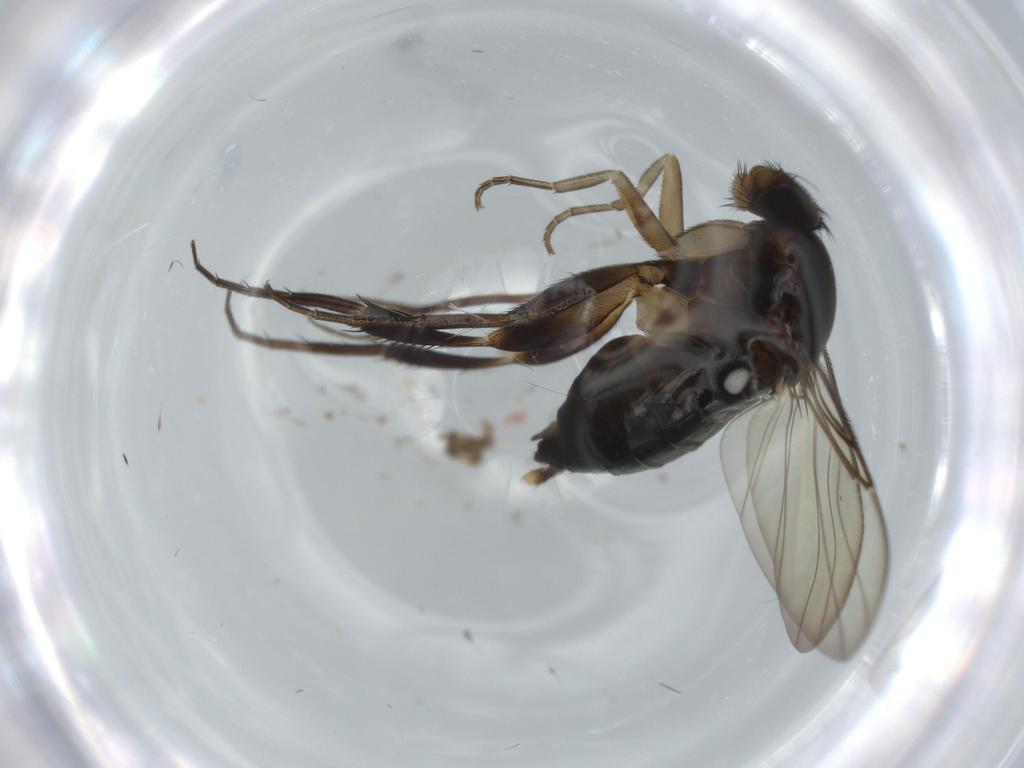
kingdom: Animalia
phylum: Arthropoda
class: Insecta
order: Diptera
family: Phoridae
